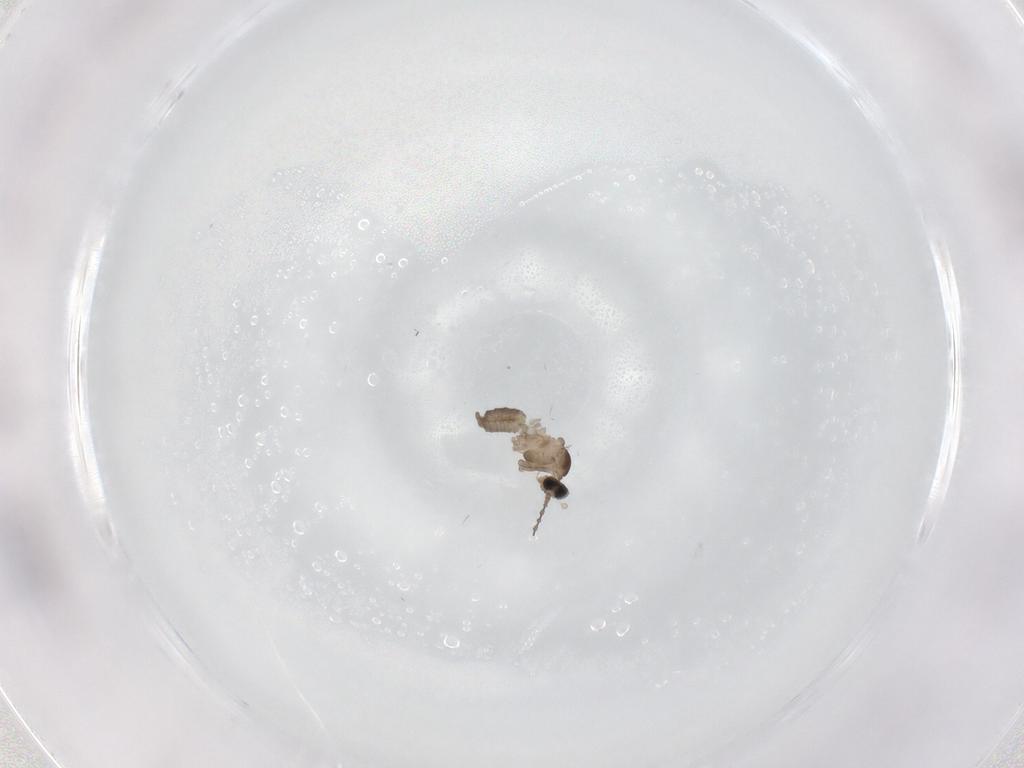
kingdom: Animalia
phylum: Arthropoda
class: Insecta
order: Diptera
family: Cecidomyiidae
